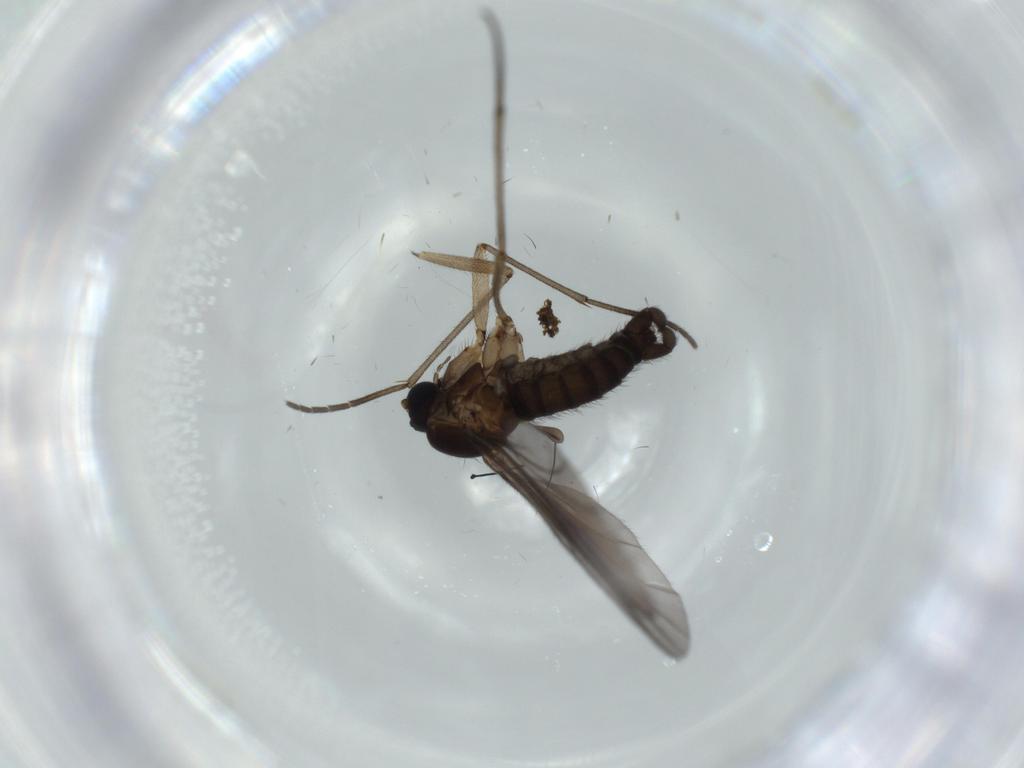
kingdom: Animalia
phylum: Arthropoda
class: Insecta
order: Diptera
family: Sciaridae
